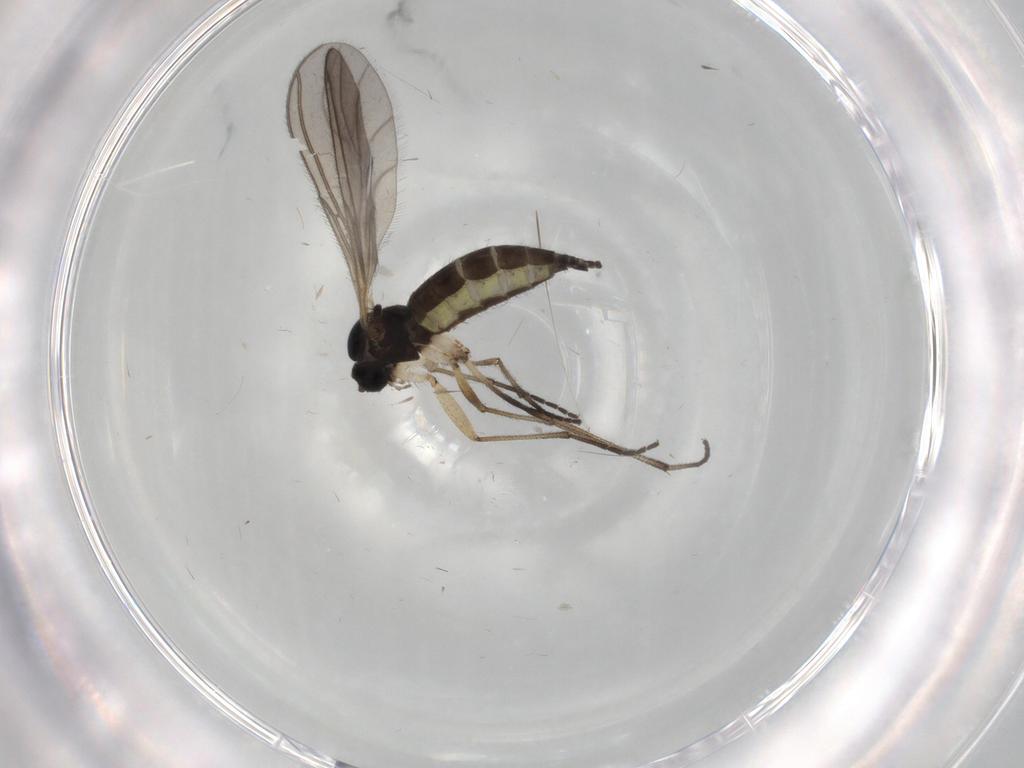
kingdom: Animalia
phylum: Arthropoda
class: Insecta
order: Diptera
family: Sciaridae
